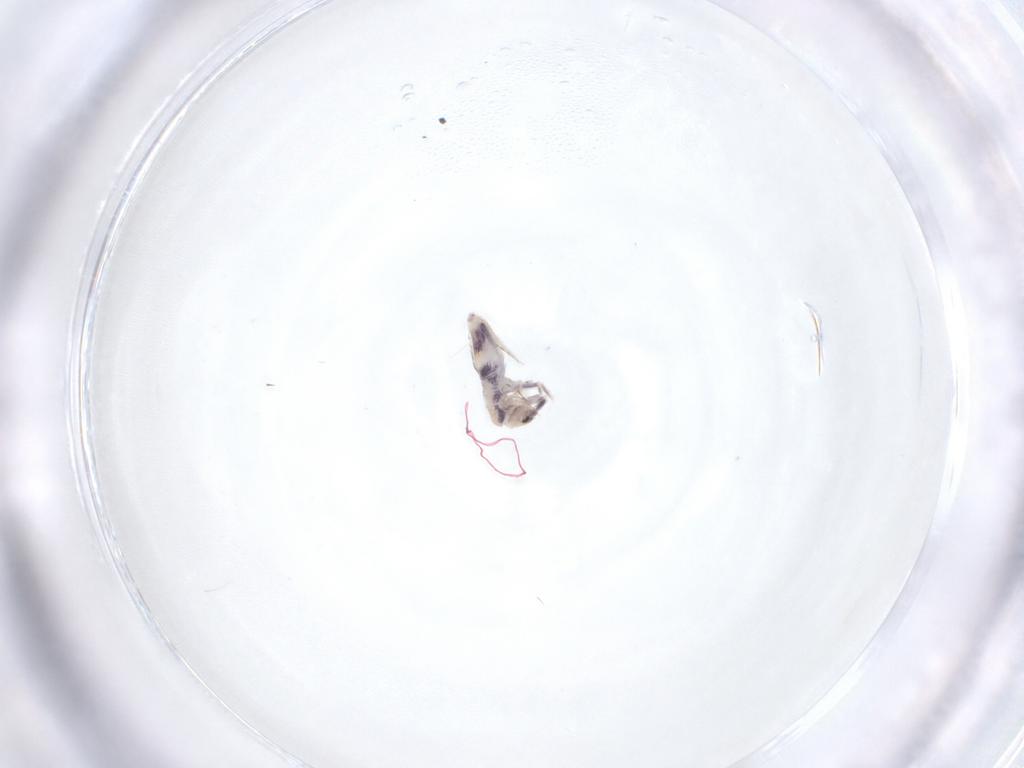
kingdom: Animalia
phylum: Arthropoda
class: Collembola
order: Entomobryomorpha
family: Entomobryidae
